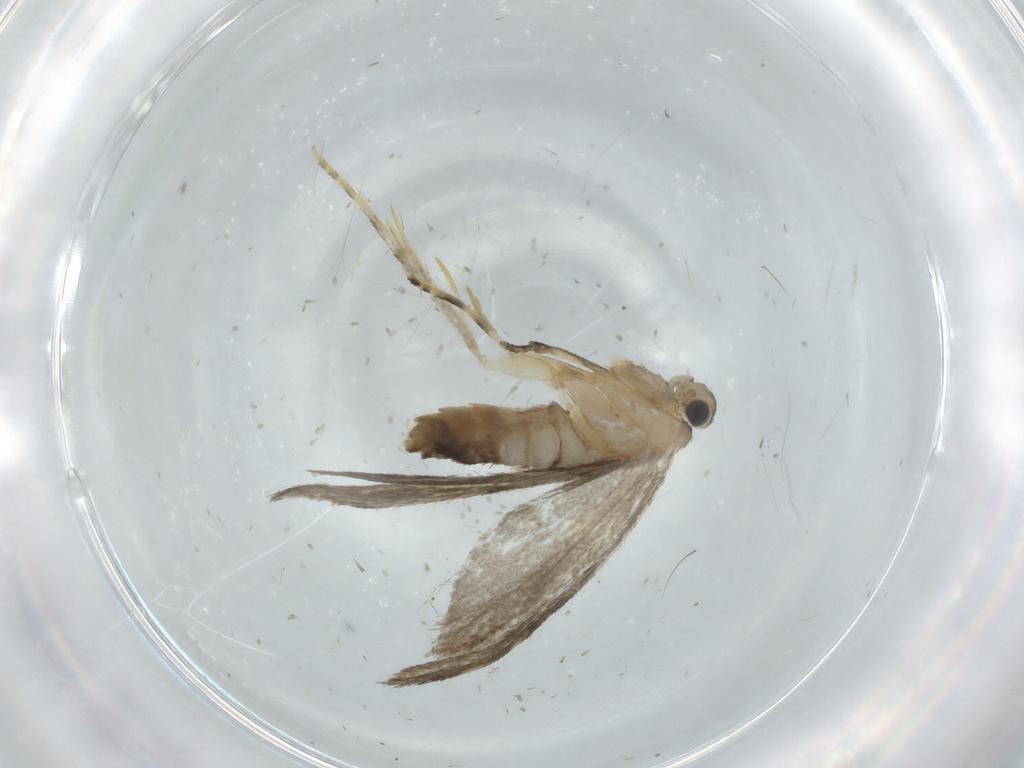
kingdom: Animalia
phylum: Arthropoda
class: Insecta
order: Lepidoptera
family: Tineidae
